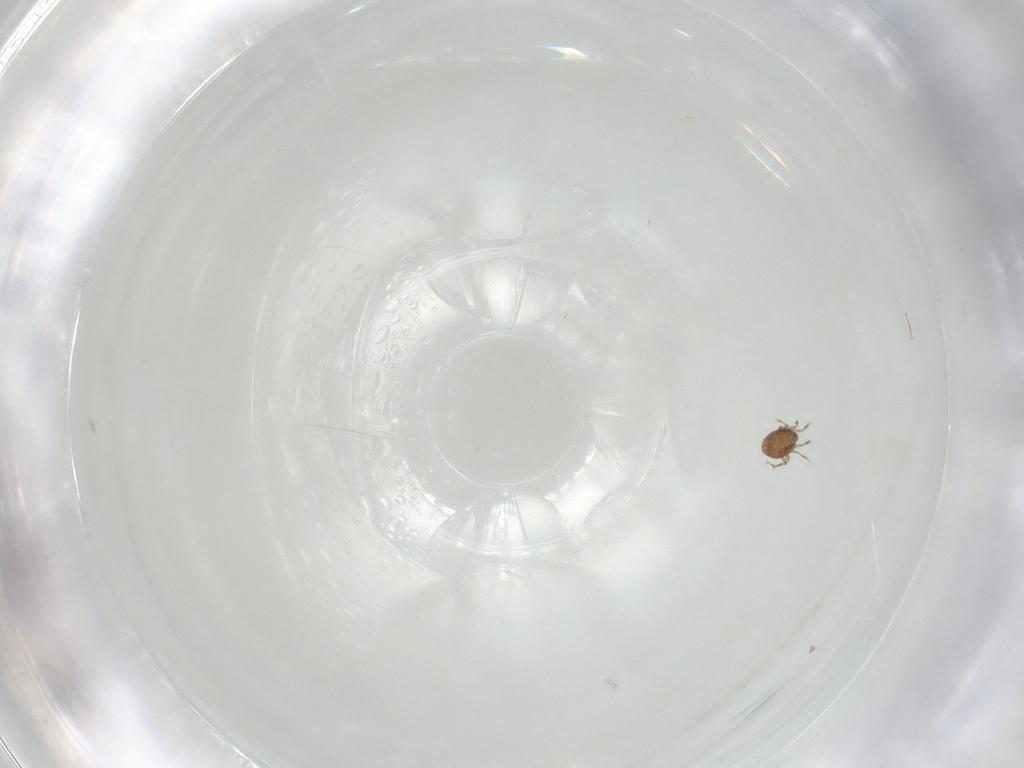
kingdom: Animalia
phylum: Arthropoda
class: Arachnida
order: Sarcoptiformes
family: Oribatulidae
